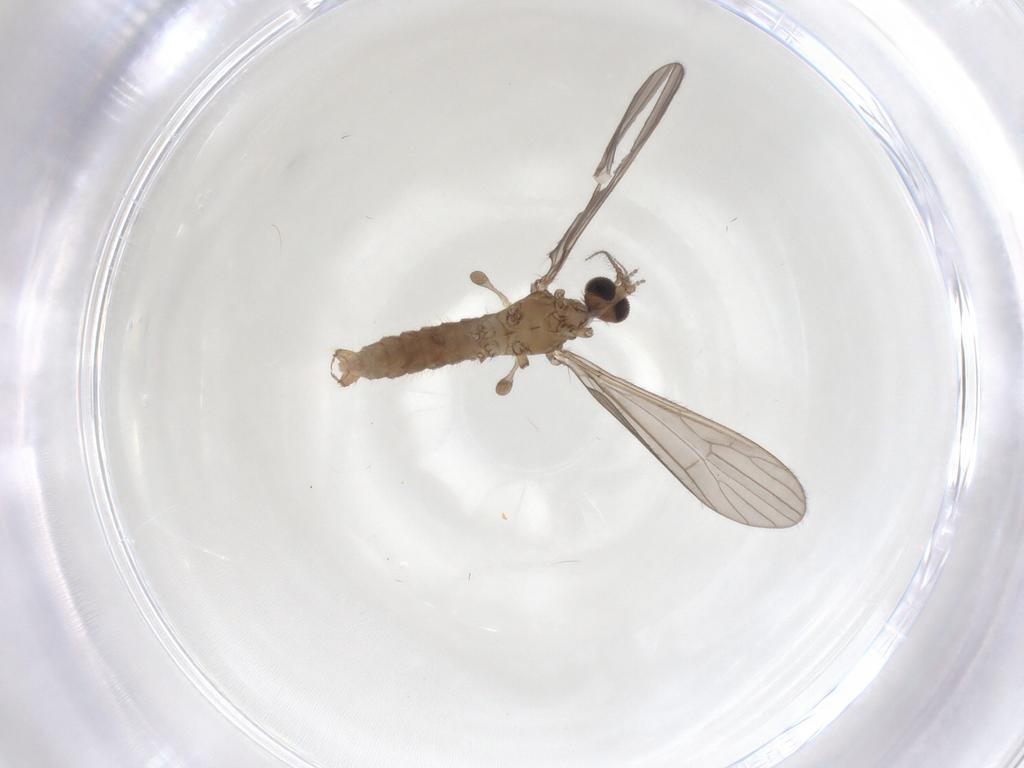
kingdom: Animalia
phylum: Arthropoda
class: Insecta
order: Diptera
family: Limoniidae
